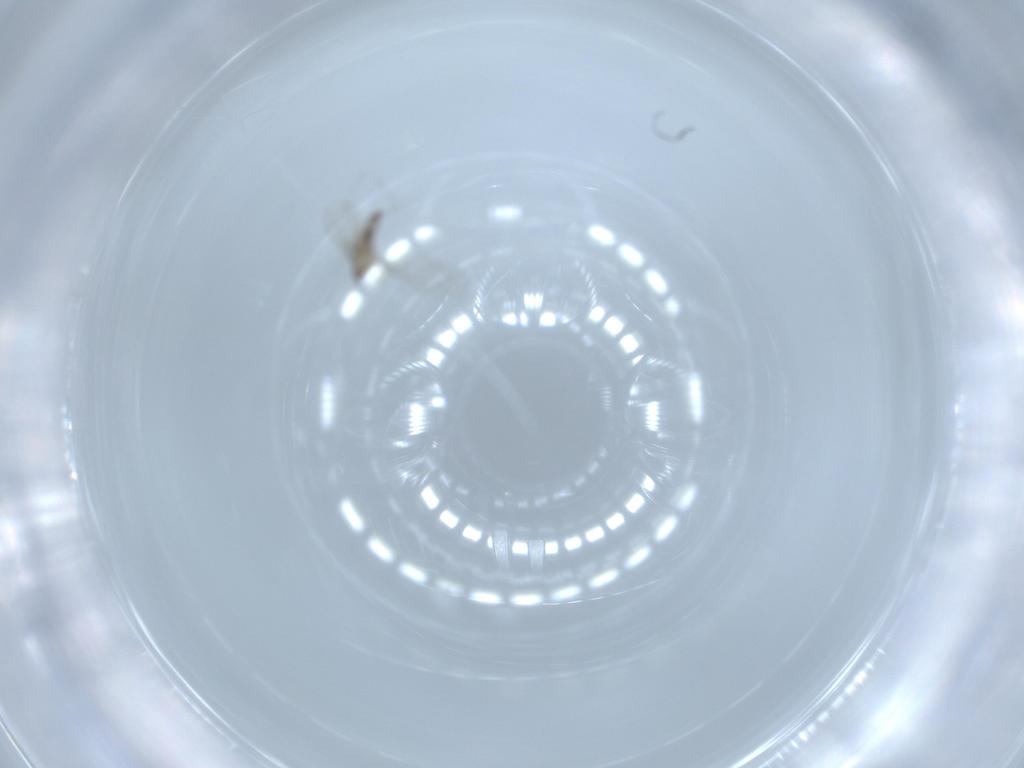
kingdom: Animalia
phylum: Arthropoda
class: Insecta
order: Diptera
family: Cecidomyiidae
